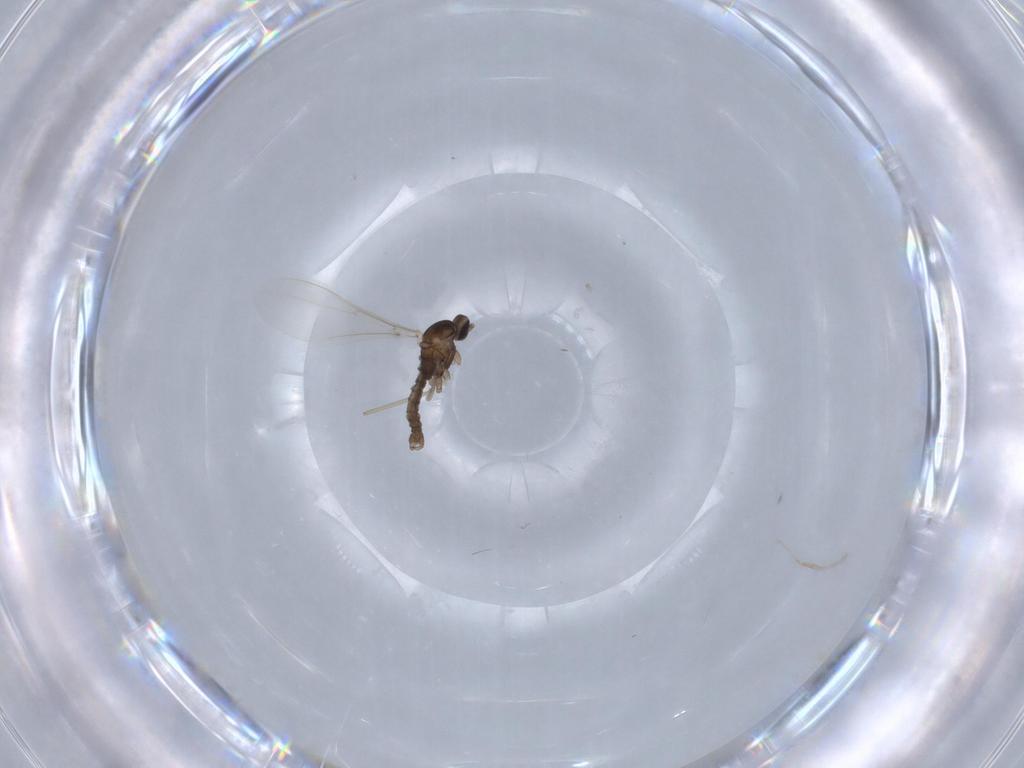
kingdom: Animalia
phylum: Arthropoda
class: Insecta
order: Diptera
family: Cecidomyiidae
